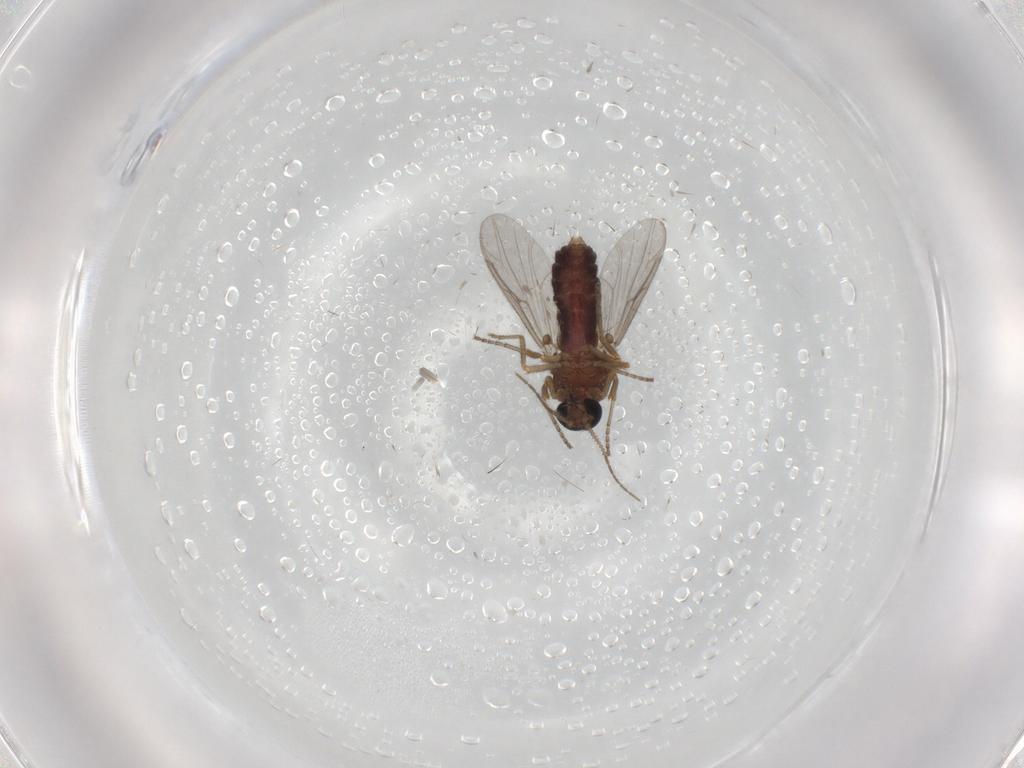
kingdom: Animalia
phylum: Arthropoda
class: Insecta
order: Diptera
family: Ceratopogonidae
